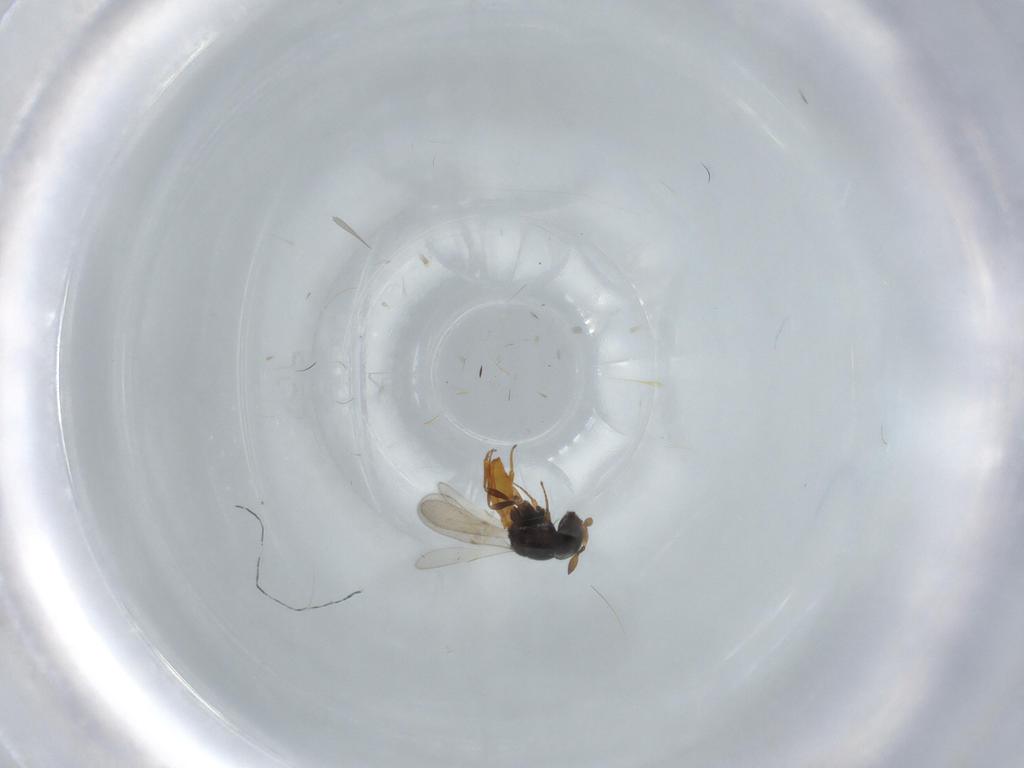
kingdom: Animalia
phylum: Arthropoda
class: Insecta
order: Hymenoptera
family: Scelionidae
